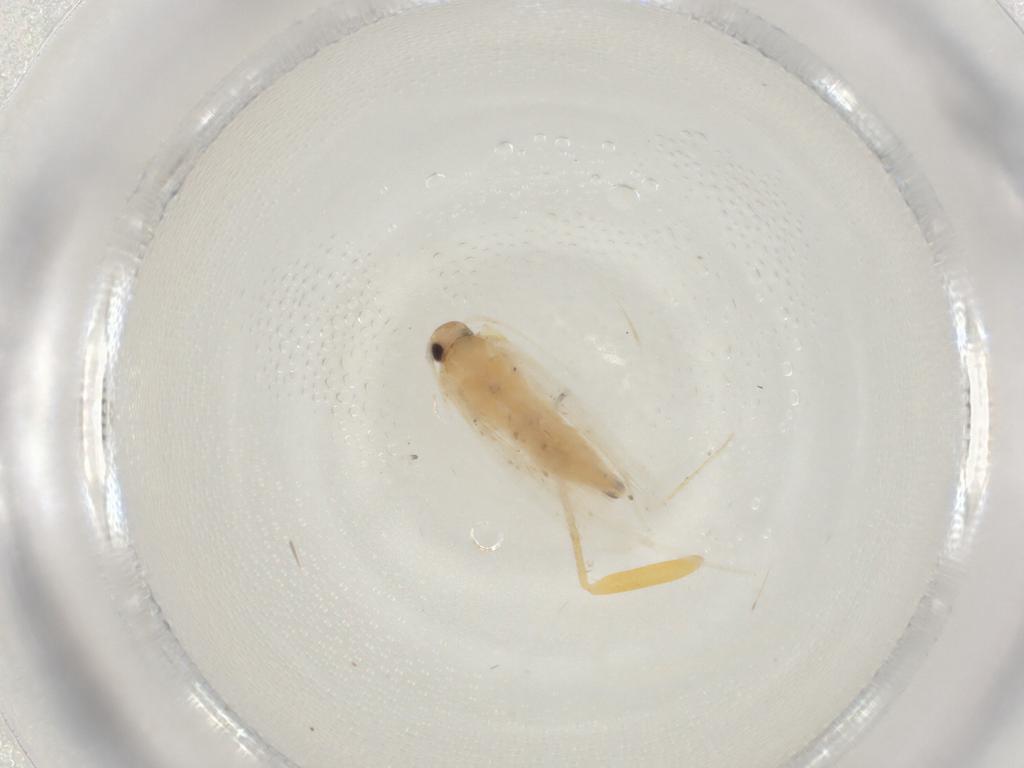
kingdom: Animalia
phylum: Arthropoda
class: Insecta
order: Lepidoptera
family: Gelechiidae
